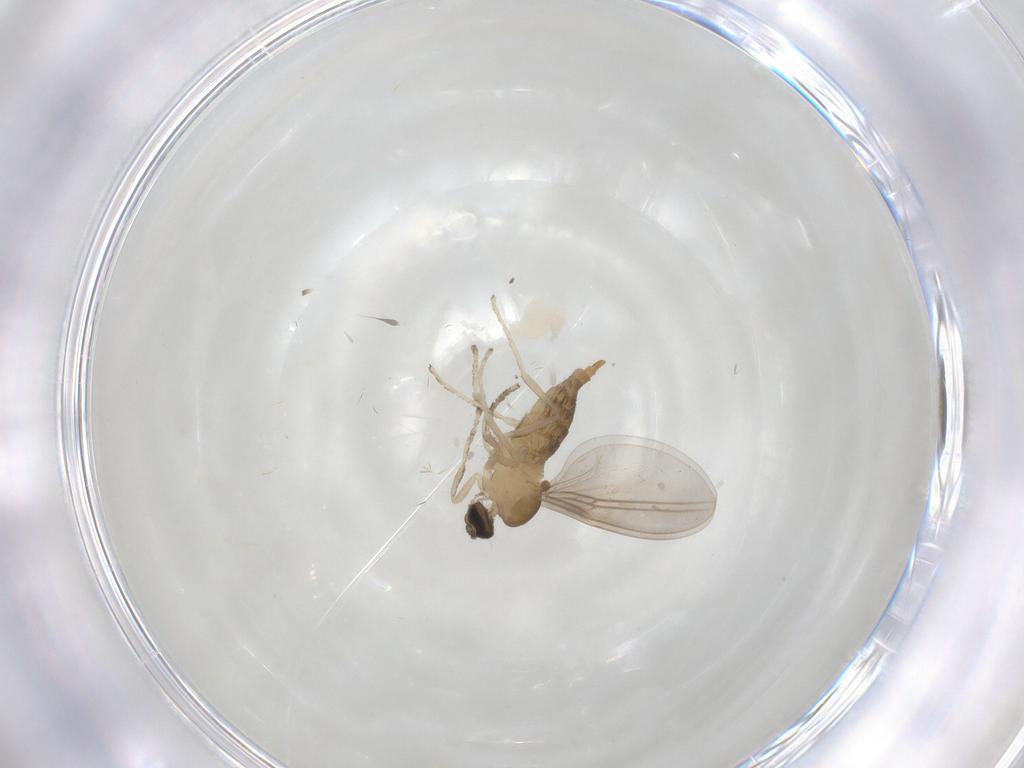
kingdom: Animalia
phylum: Arthropoda
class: Insecta
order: Diptera
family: Cecidomyiidae
